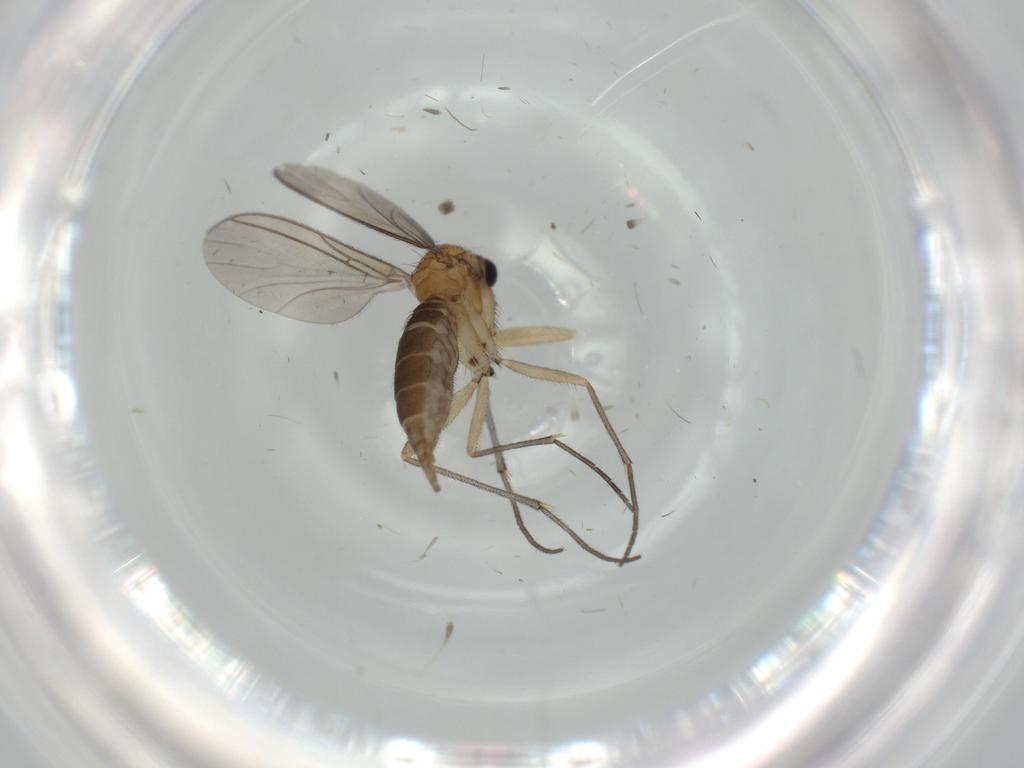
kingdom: Animalia
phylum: Arthropoda
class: Insecta
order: Diptera
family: Sciaridae
